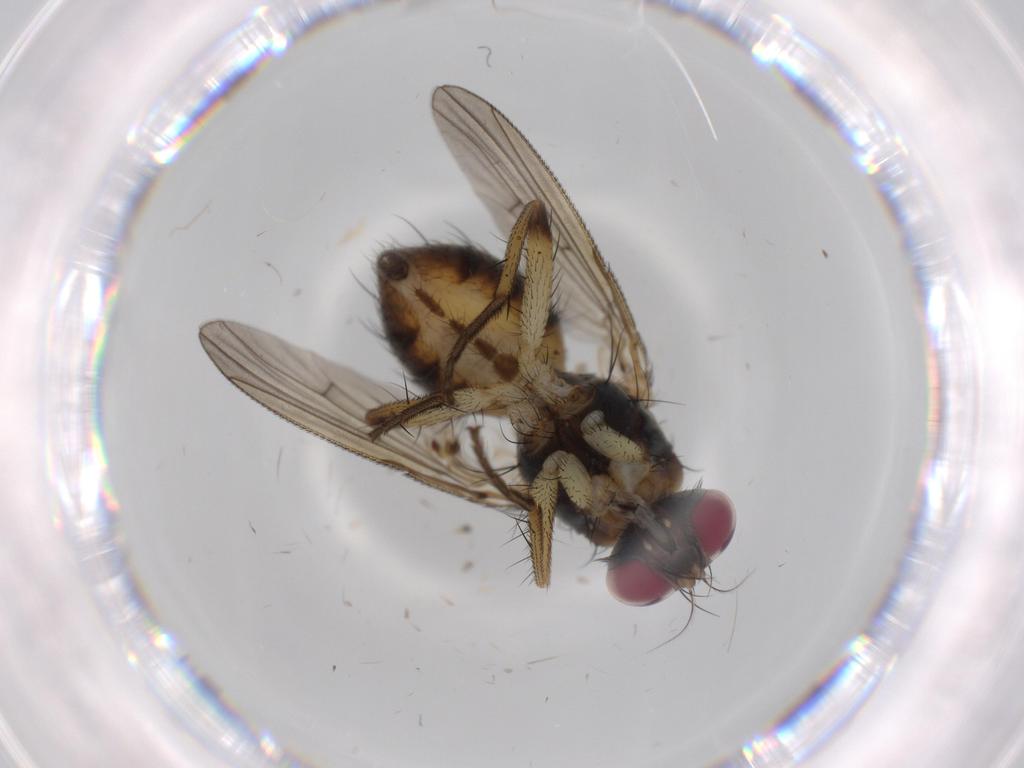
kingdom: Animalia
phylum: Arthropoda
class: Insecta
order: Diptera
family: Muscidae
